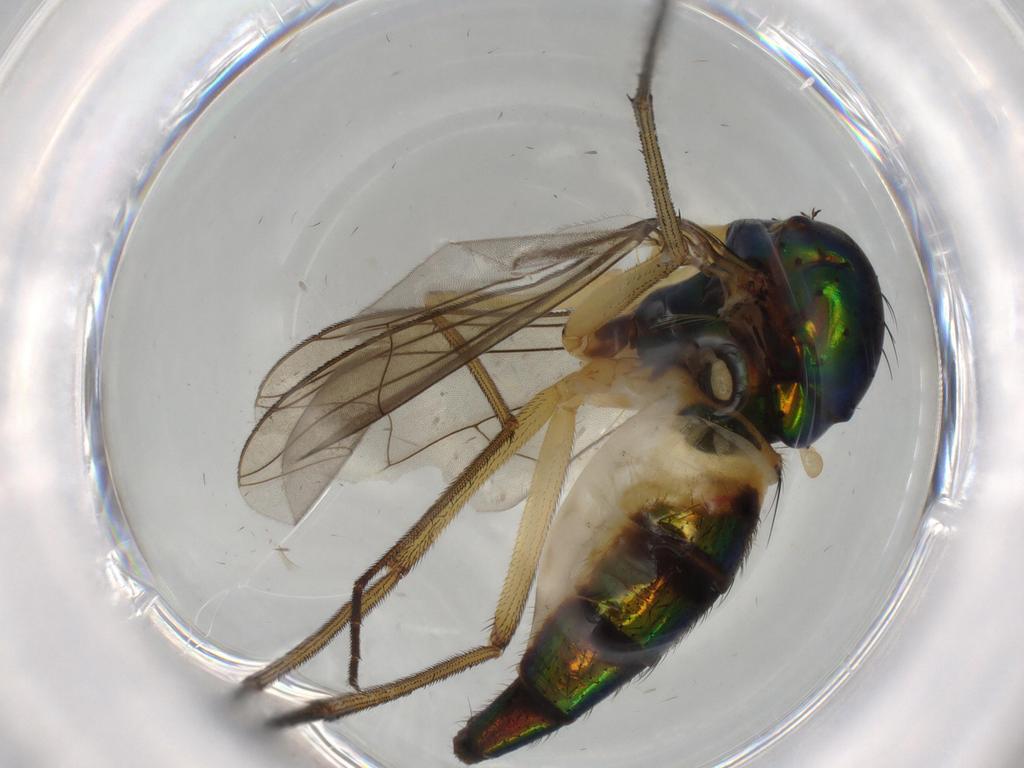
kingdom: Animalia
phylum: Arthropoda
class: Insecta
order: Diptera
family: Dolichopodidae
